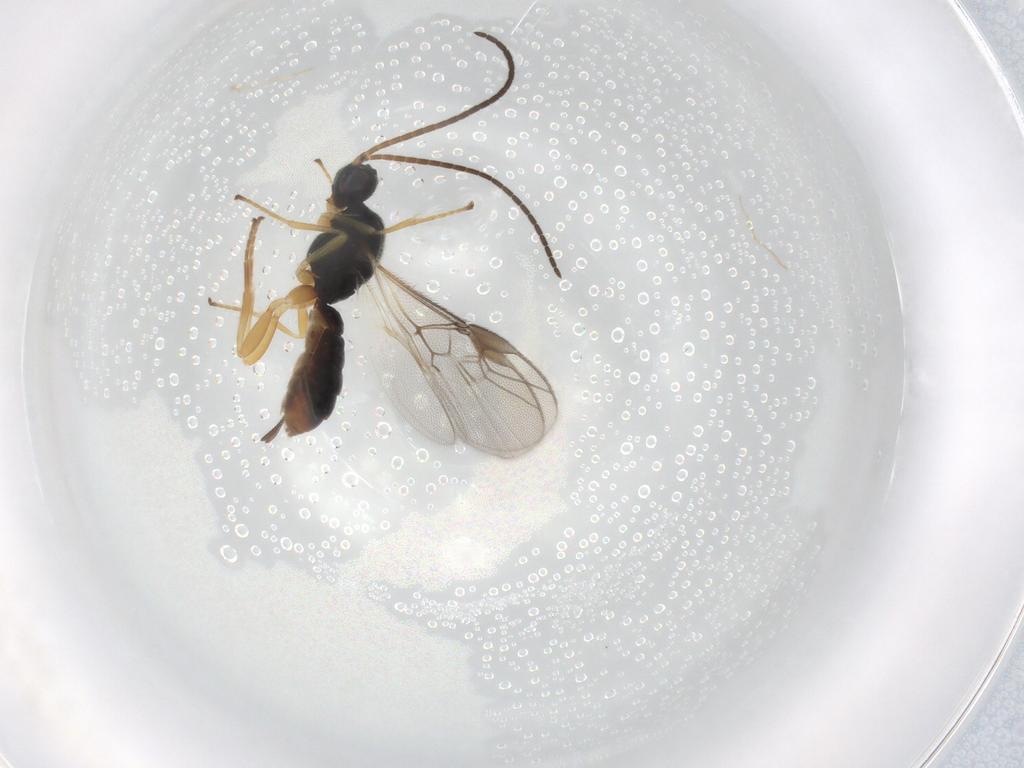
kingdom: Animalia
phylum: Arthropoda
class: Insecta
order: Hymenoptera
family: Braconidae
